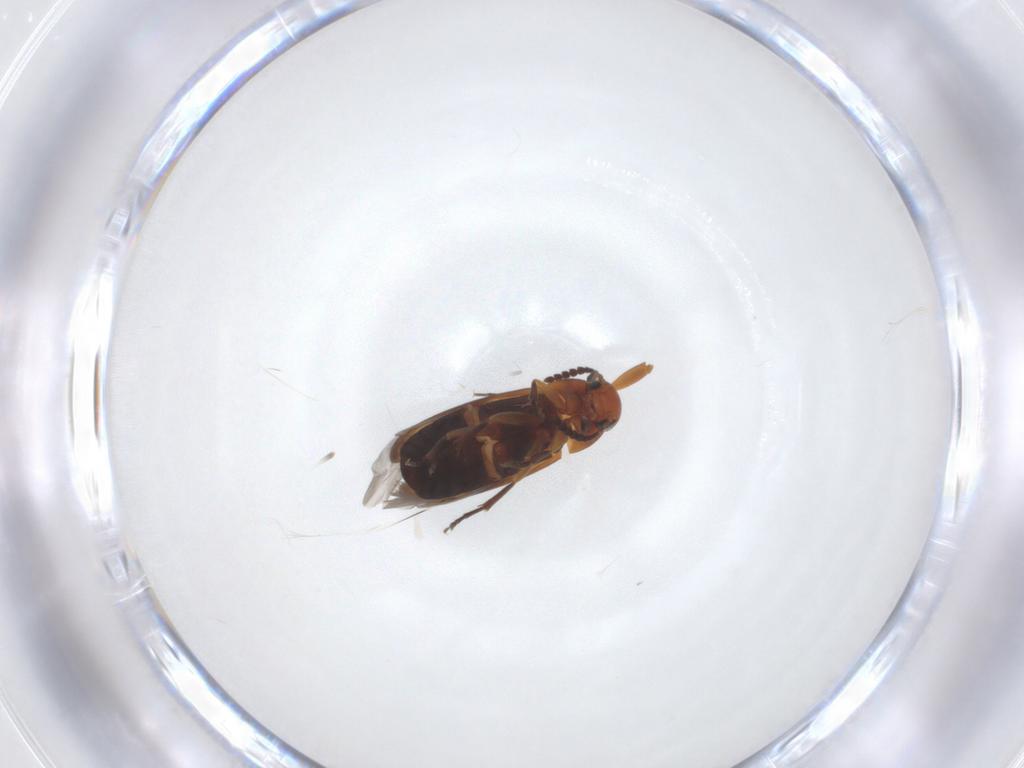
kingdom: Animalia
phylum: Arthropoda
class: Insecta
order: Coleoptera
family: Scraptiidae
